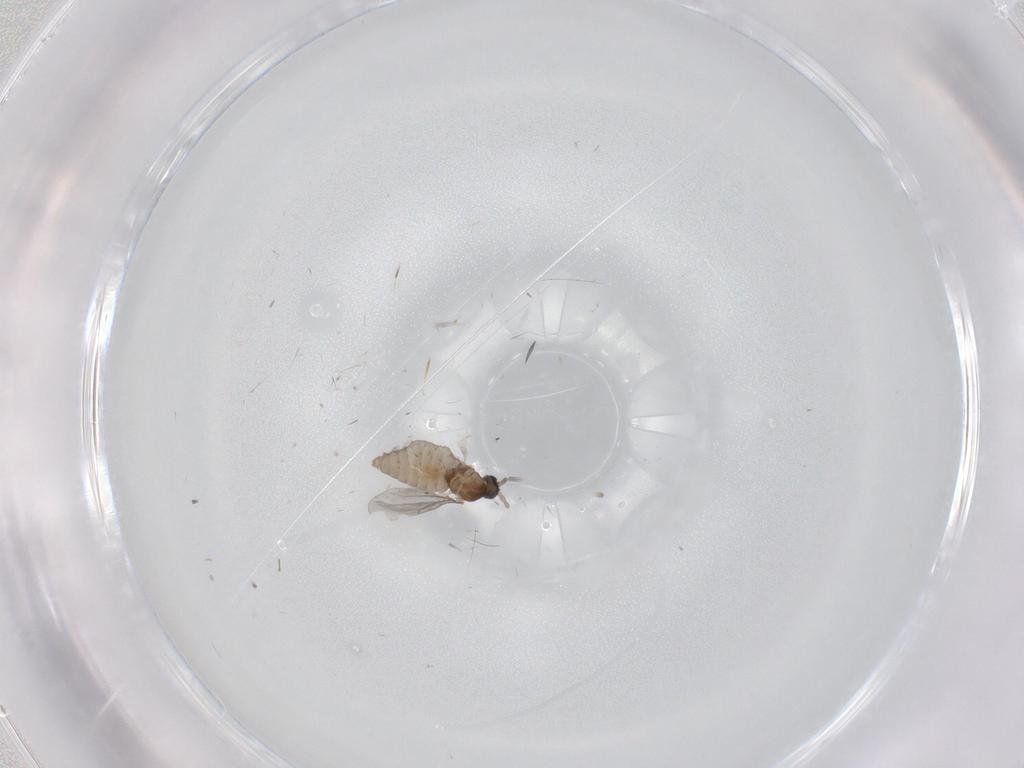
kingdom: Animalia
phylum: Arthropoda
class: Insecta
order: Diptera
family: Cecidomyiidae
